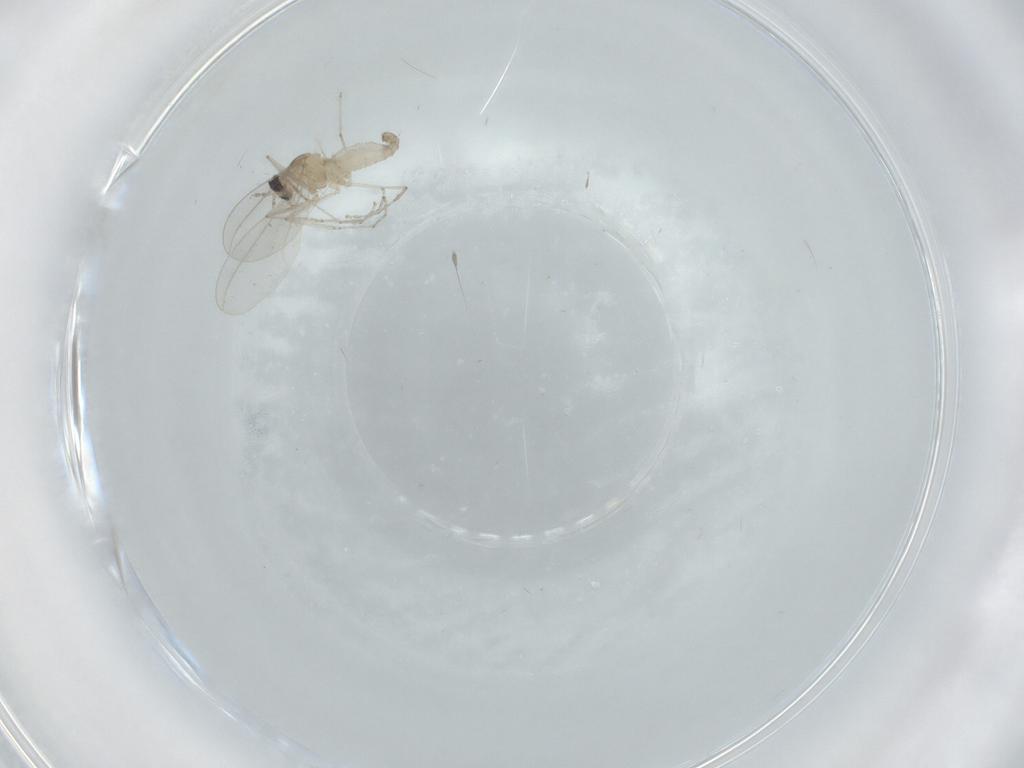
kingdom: Animalia
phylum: Arthropoda
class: Insecta
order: Diptera
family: Cecidomyiidae
